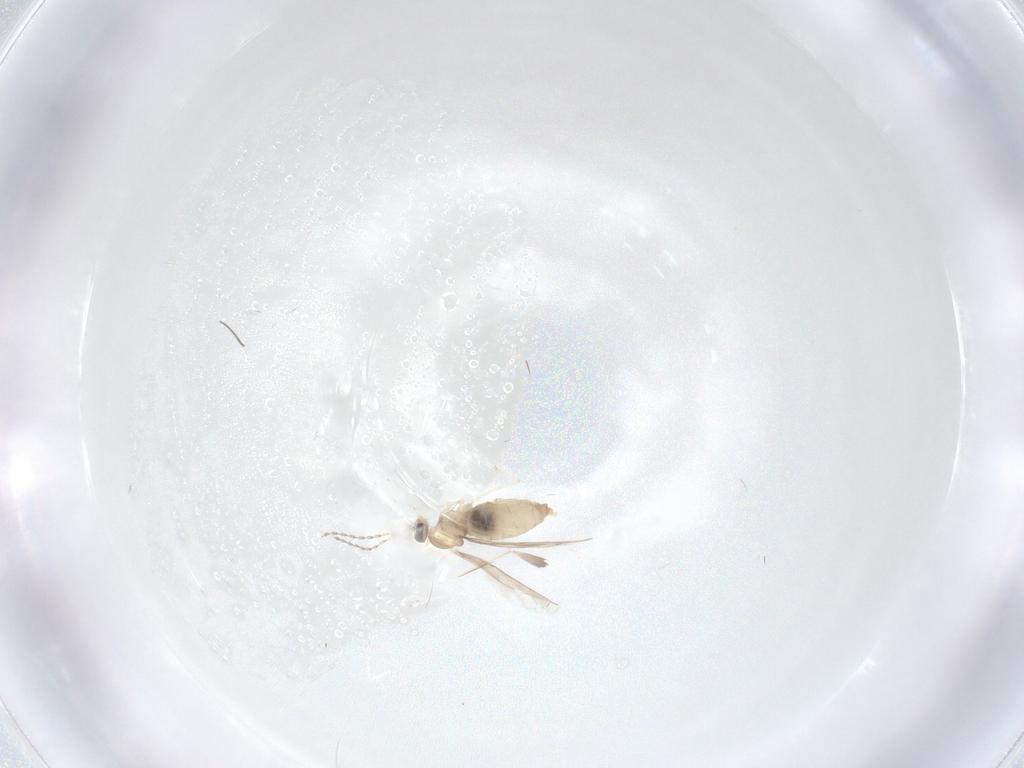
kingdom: Animalia
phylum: Arthropoda
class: Insecta
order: Diptera
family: Cecidomyiidae
